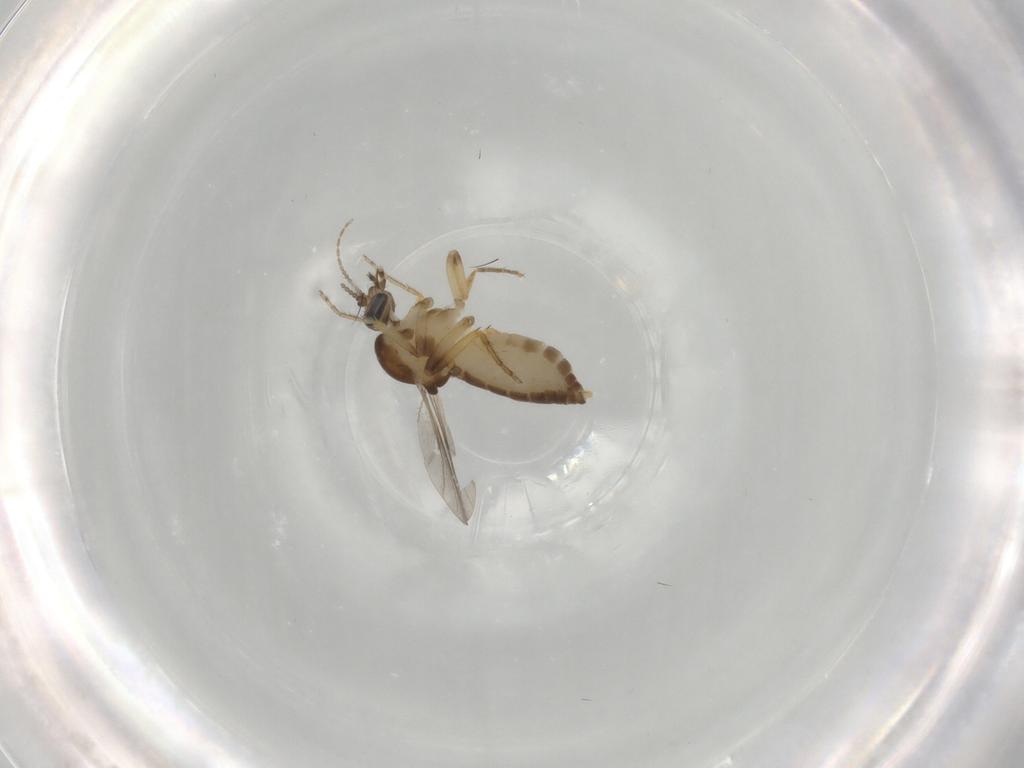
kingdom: Animalia
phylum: Arthropoda
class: Insecta
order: Diptera
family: Ceratopogonidae
